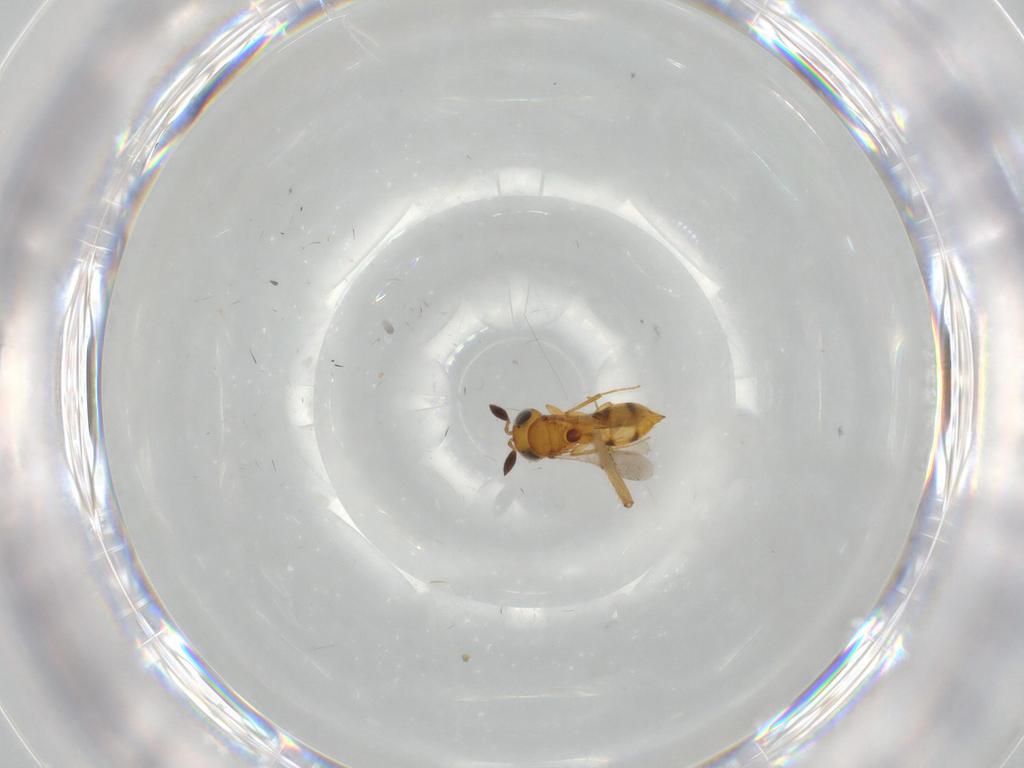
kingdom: Animalia
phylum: Arthropoda
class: Insecta
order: Hymenoptera
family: Scelionidae
